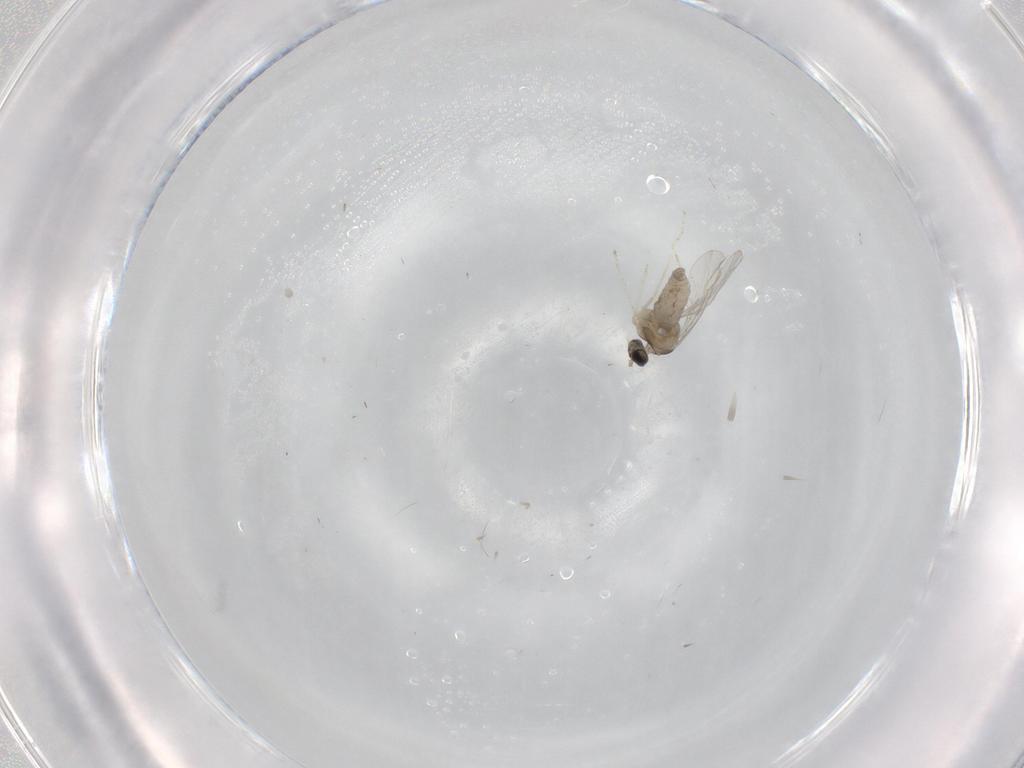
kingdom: Animalia
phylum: Arthropoda
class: Insecta
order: Diptera
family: Cecidomyiidae
